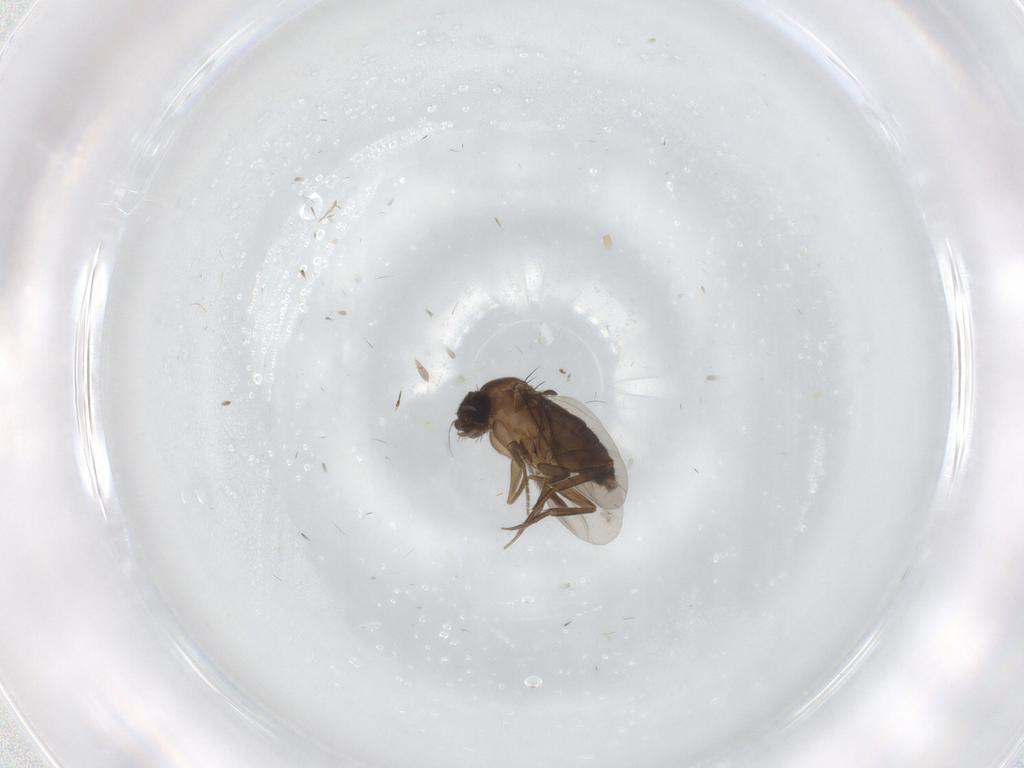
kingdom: Animalia
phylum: Arthropoda
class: Insecta
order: Diptera
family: Phoridae
